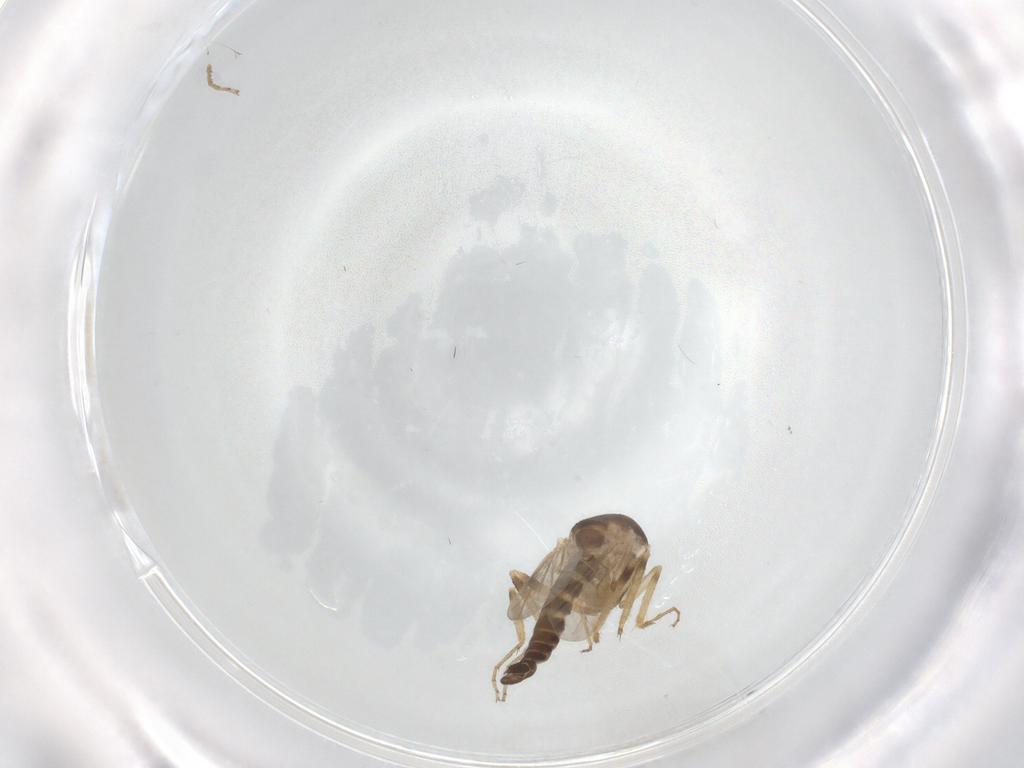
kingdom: Animalia
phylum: Arthropoda
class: Insecta
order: Diptera
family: Ceratopogonidae
